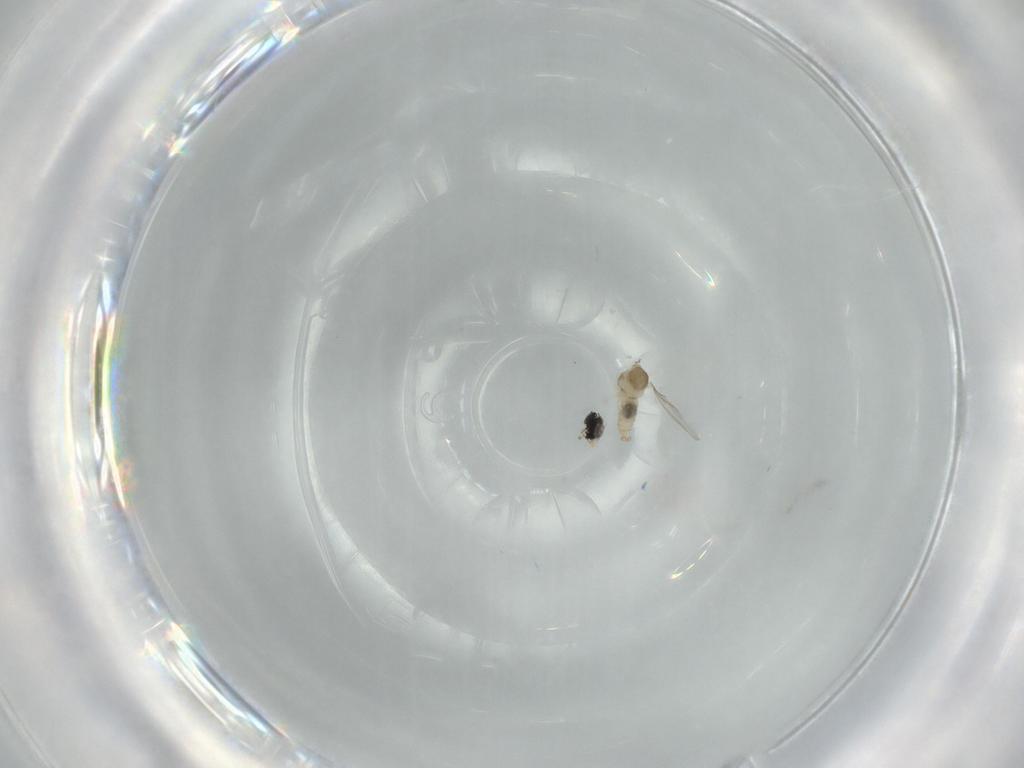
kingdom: Animalia
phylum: Arthropoda
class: Insecta
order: Diptera
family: Cecidomyiidae
